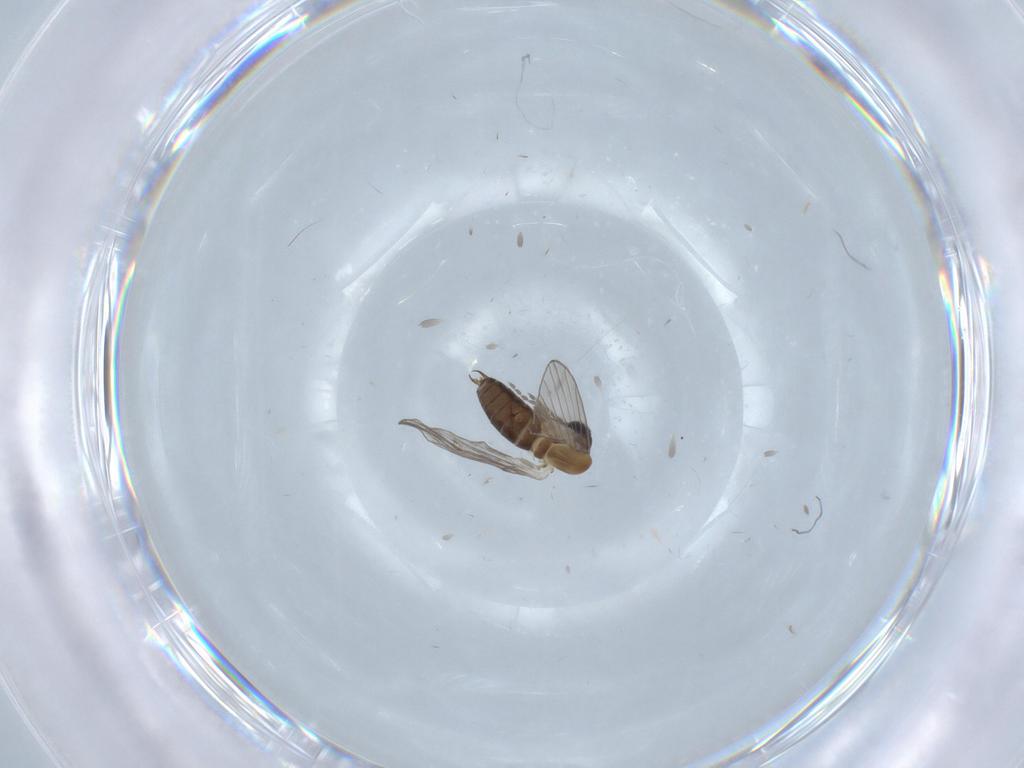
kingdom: Animalia
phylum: Arthropoda
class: Insecta
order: Diptera
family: Psychodidae
